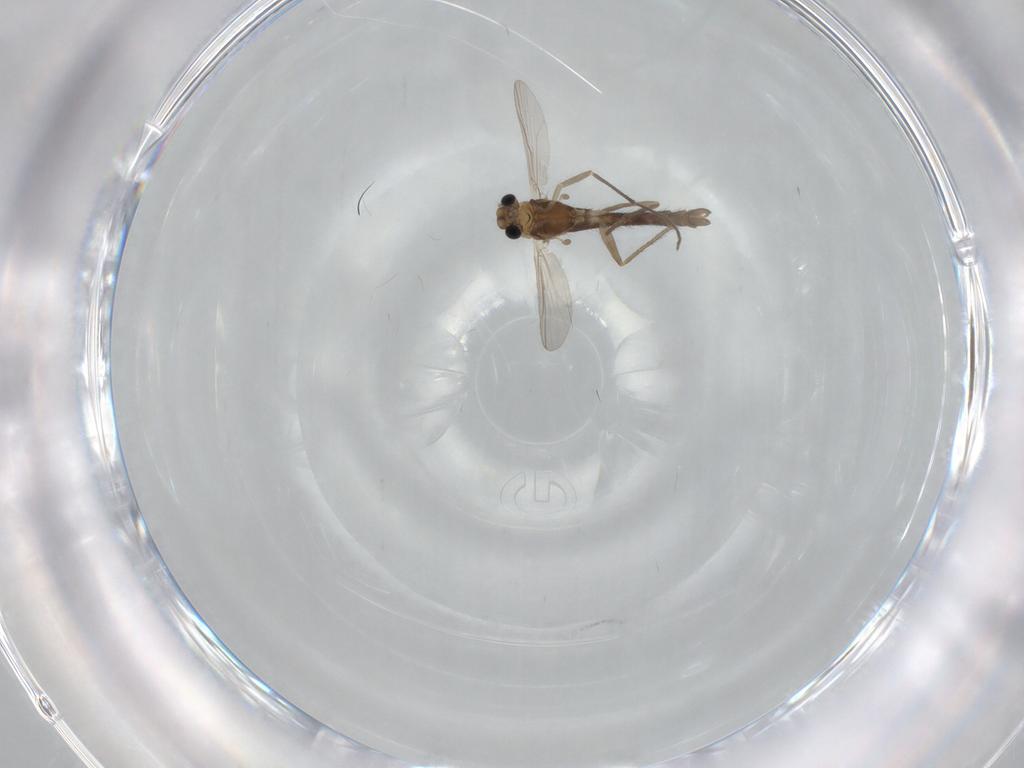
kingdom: Animalia
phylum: Arthropoda
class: Insecta
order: Diptera
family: Chironomidae
